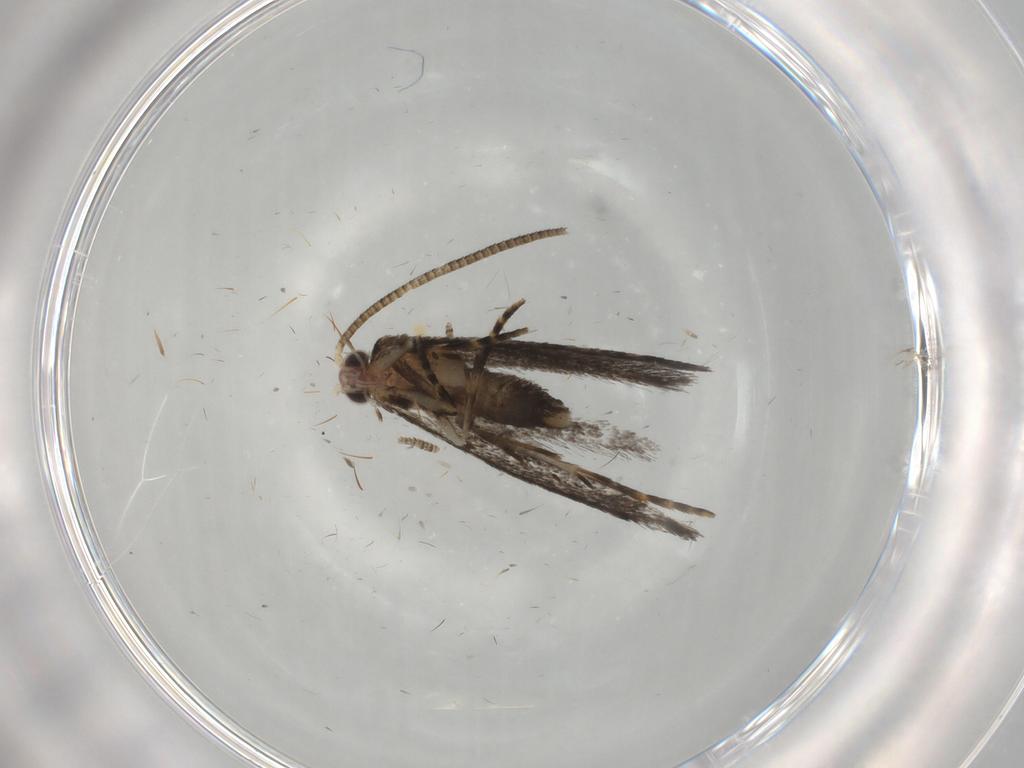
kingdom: Animalia
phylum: Arthropoda
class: Insecta
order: Lepidoptera
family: Tineidae
